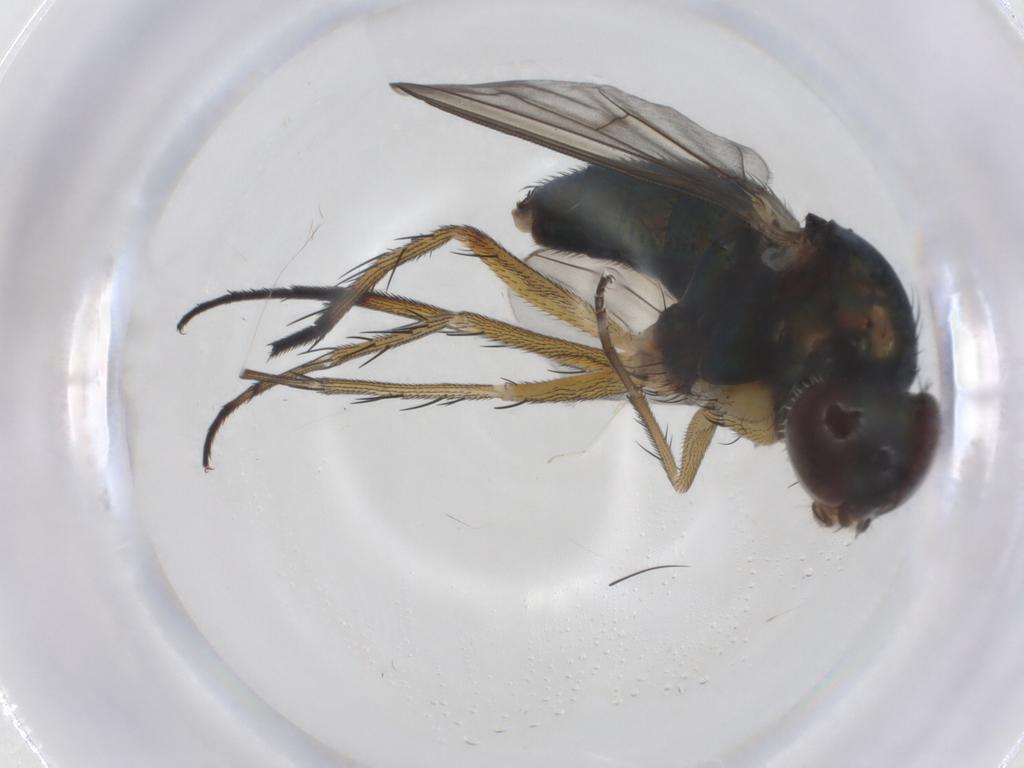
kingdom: Animalia
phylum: Arthropoda
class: Insecta
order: Diptera
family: Dolichopodidae
